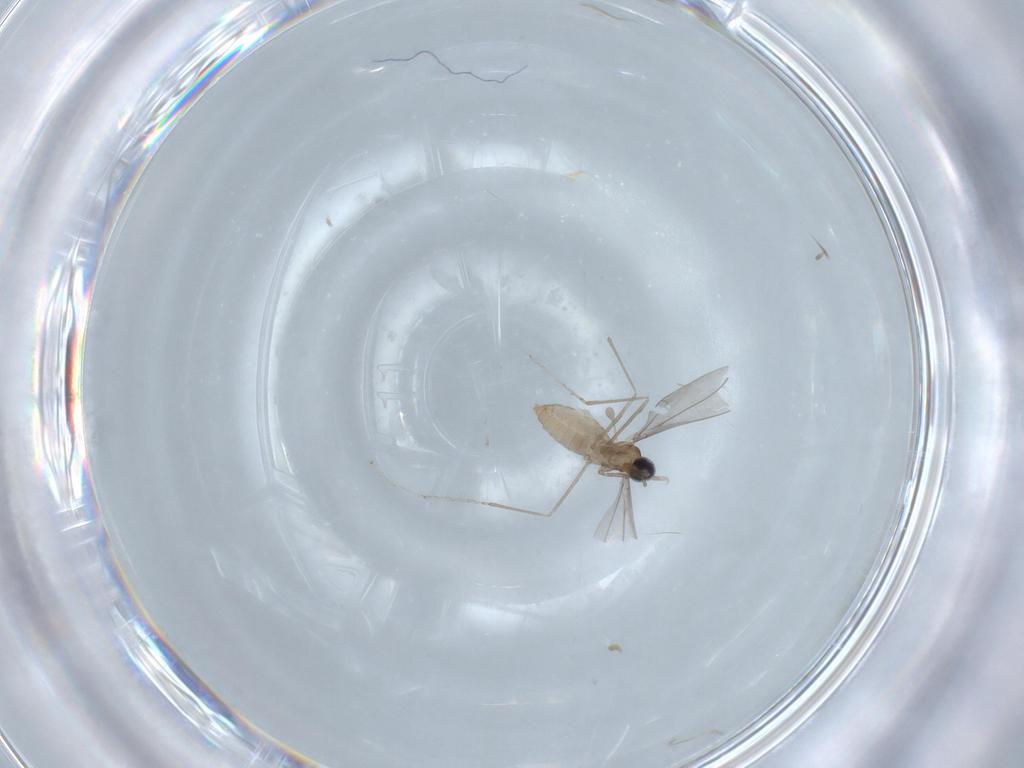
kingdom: Animalia
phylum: Arthropoda
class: Insecta
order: Diptera
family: Cecidomyiidae
